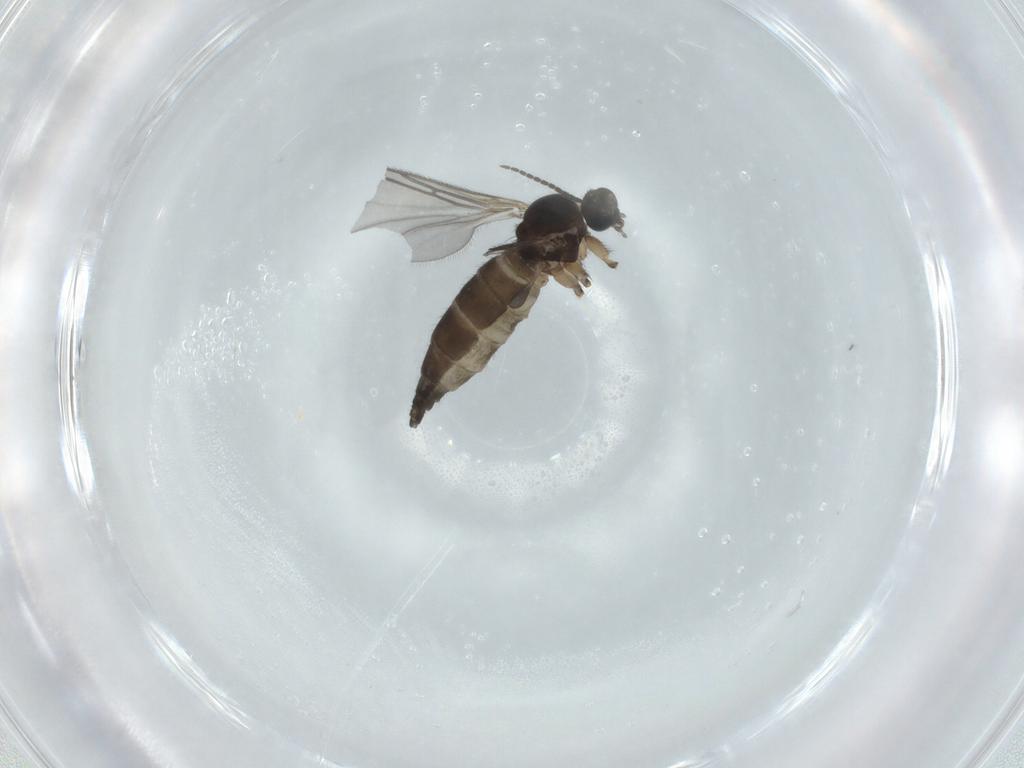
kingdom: Animalia
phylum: Arthropoda
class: Insecta
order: Diptera
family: Sciaridae
